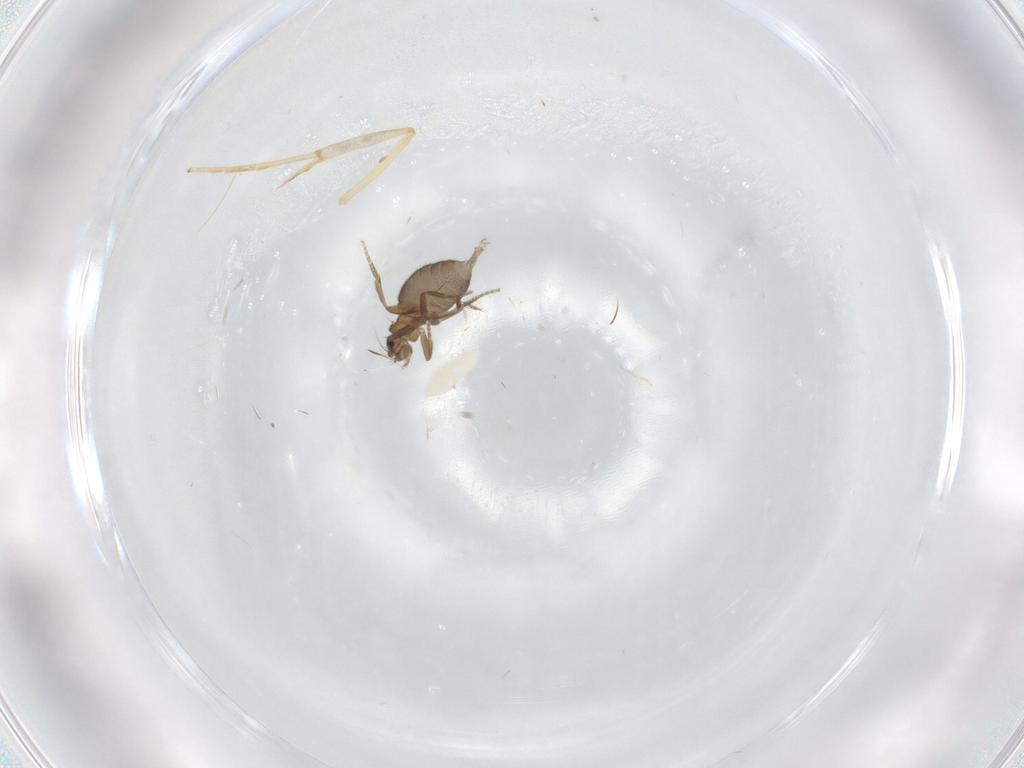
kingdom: Animalia
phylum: Arthropoda
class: Insecta
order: Diptera
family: Phoridae
